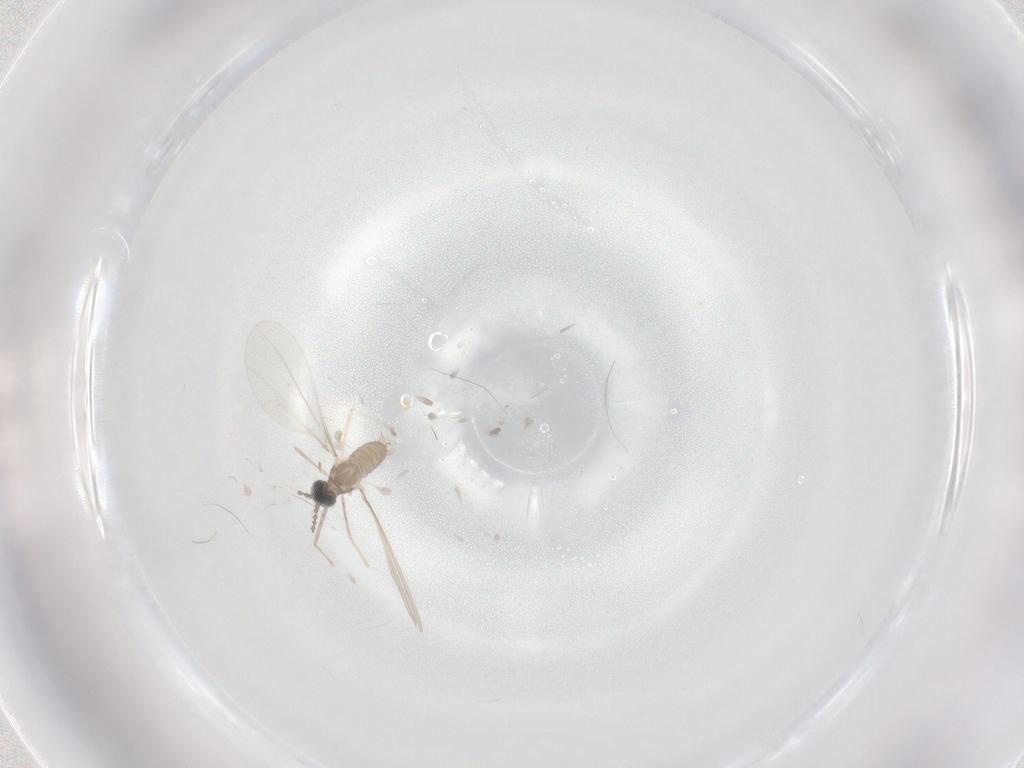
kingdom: Animalia
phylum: Arthropoda
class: Insecta
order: Diptera
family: Cecidomyiidae
